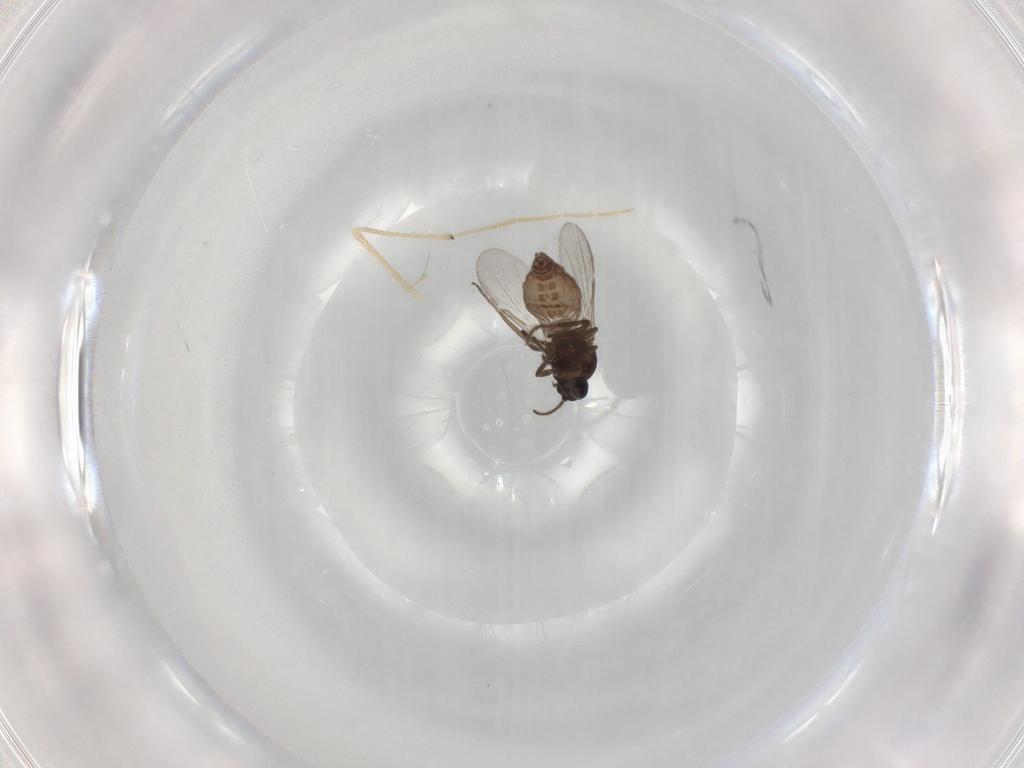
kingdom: Animalia
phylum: Arthropoda
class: Insecta
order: Diptera
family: Ceratopogonidae
